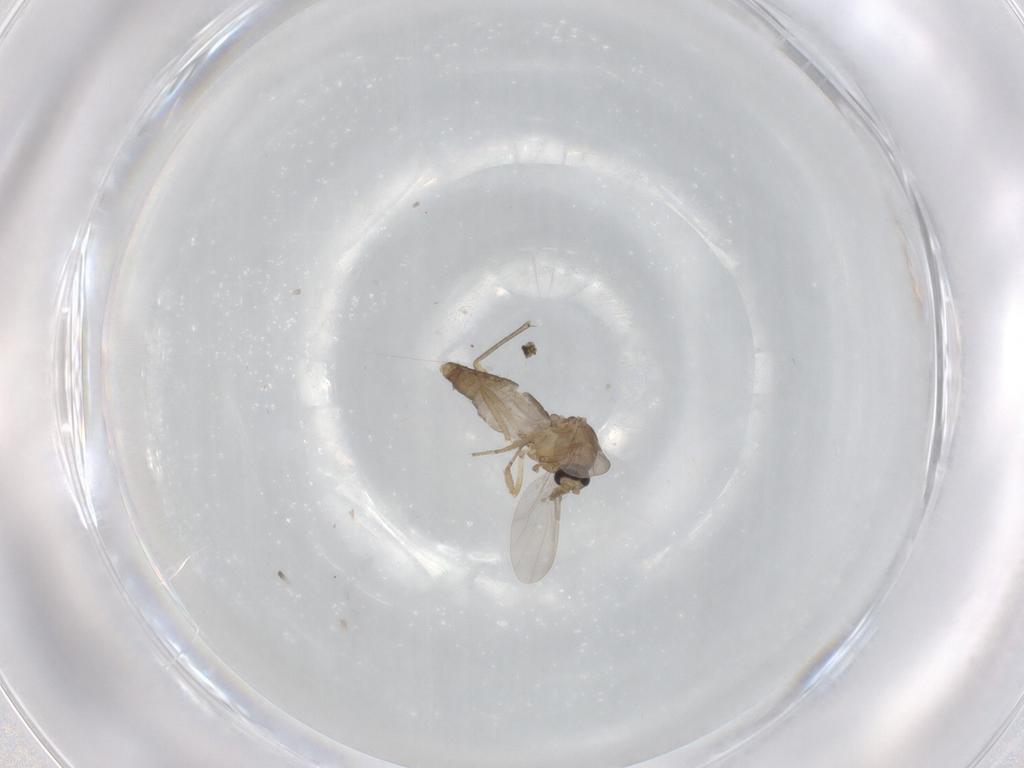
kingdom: Animalia
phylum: Arthropoda
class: Insecta
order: Diptera
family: Ceratopogonidae
